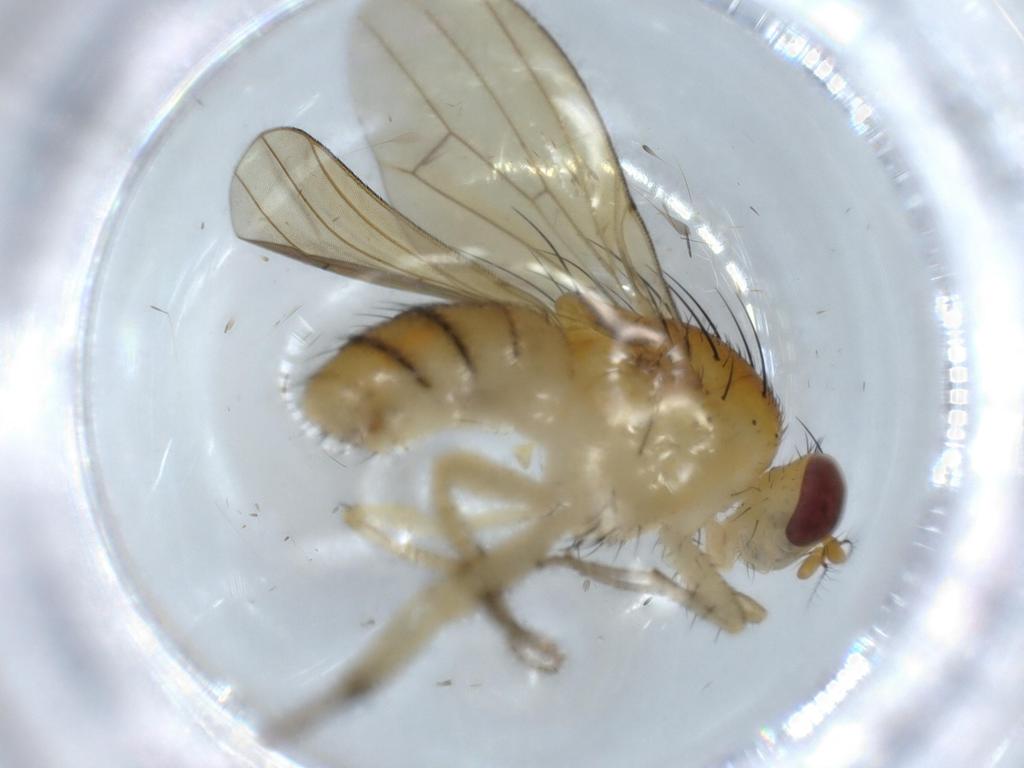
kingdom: Animalia
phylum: Arthropoda
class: Insecta
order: Diptera
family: Lauxaniidae
